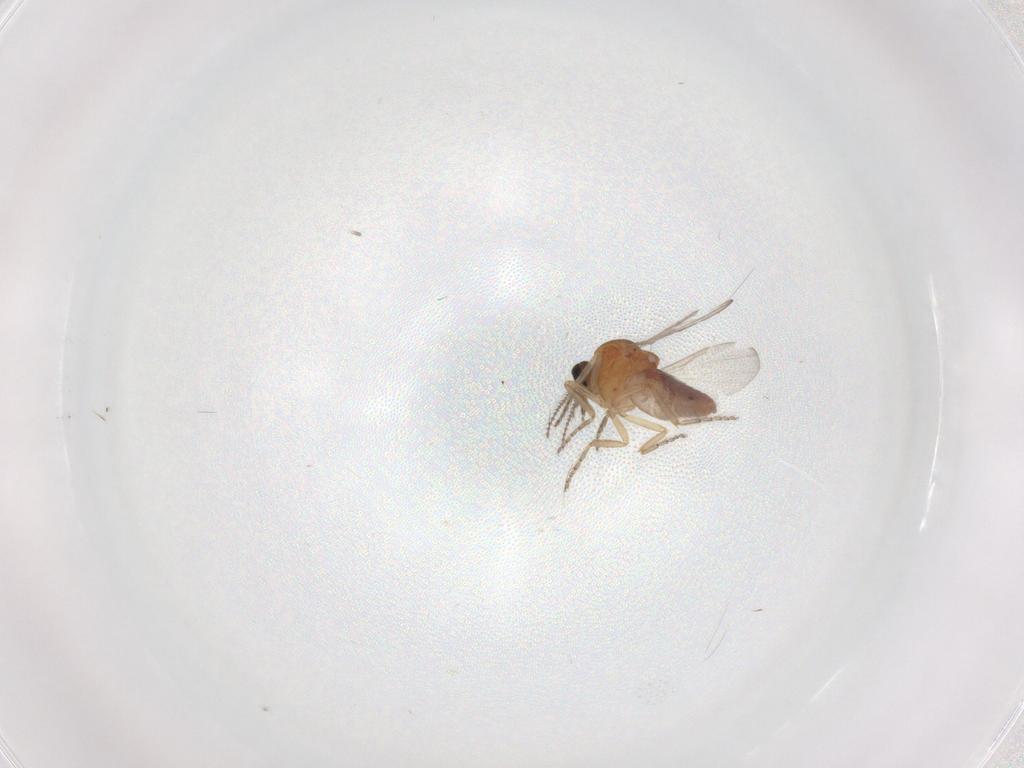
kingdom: Animalia
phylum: Arthropoda
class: Insecta
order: Diptera
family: Ceratopogonidae
